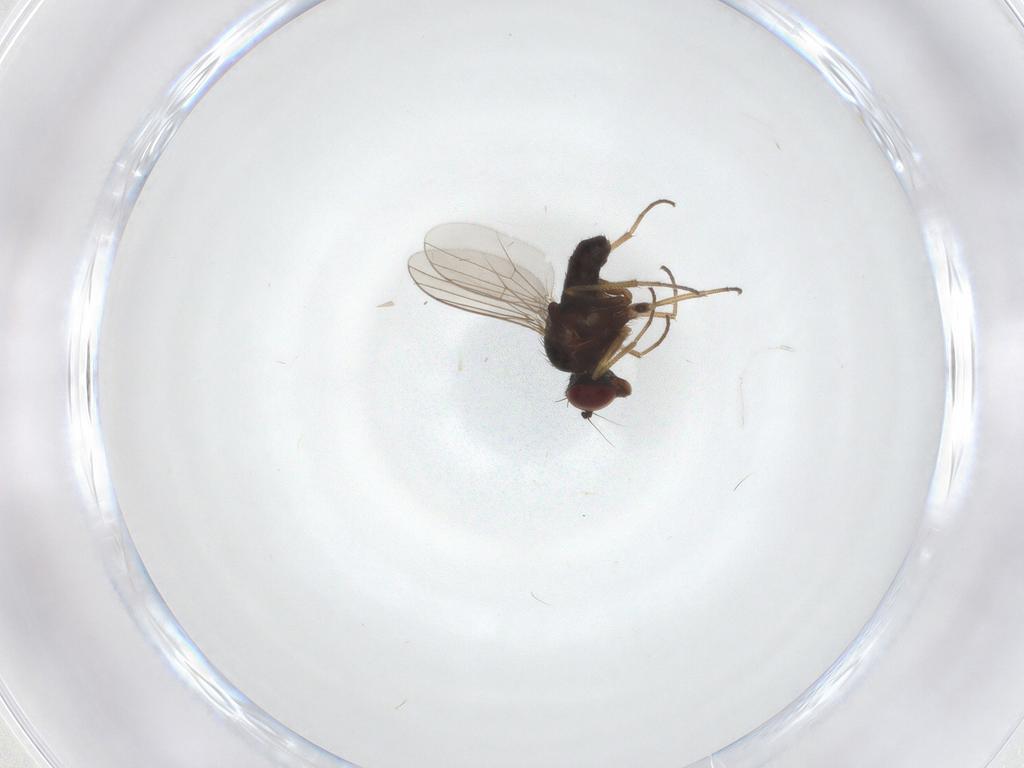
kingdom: Animalia
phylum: Arthropoda
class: Insecta
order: Diptera
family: Dolichopodidae
